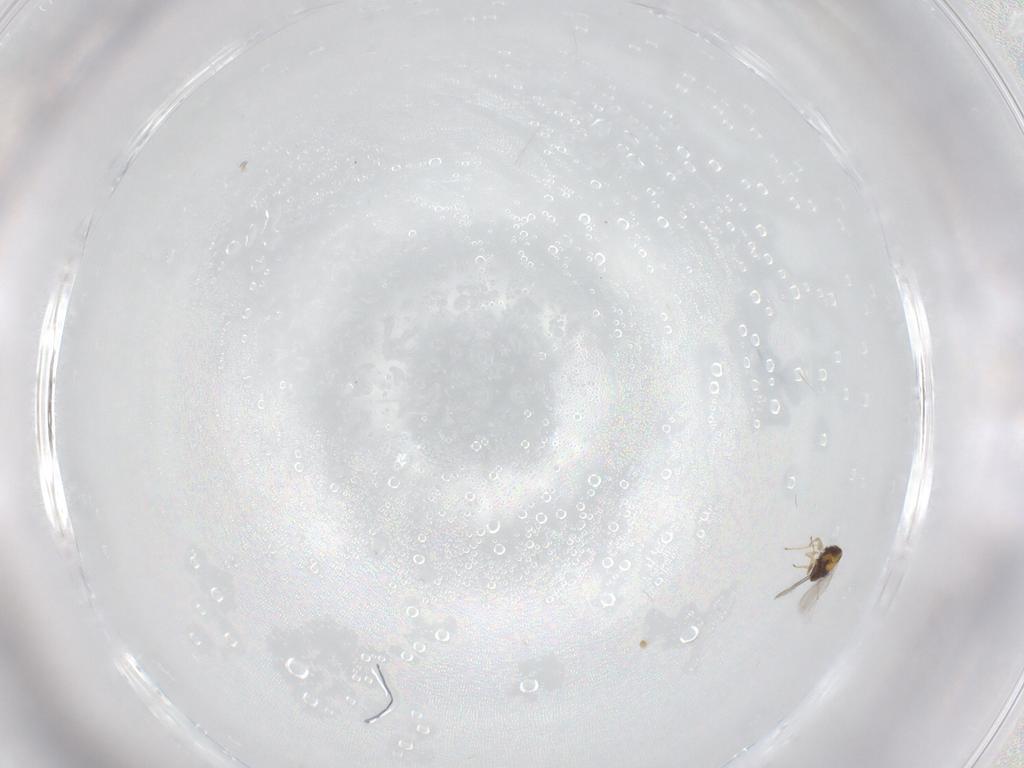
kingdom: Animalia
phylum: Arthropoda
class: Insecta
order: Hymenoptera
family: Aphelinidae
